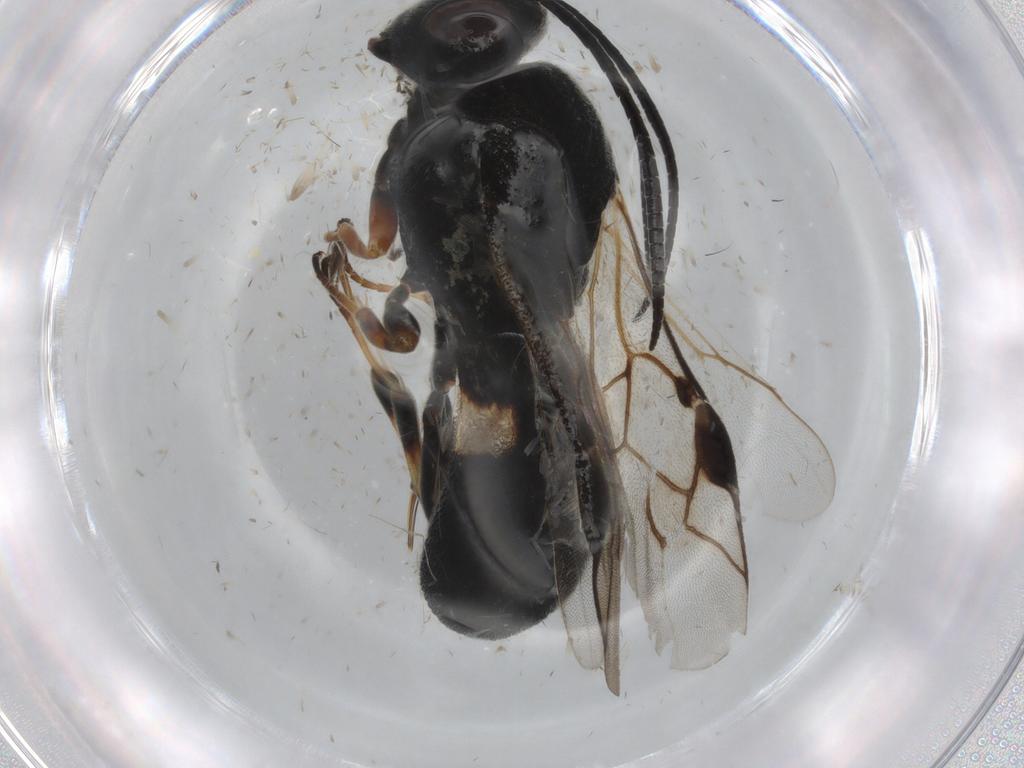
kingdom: Animalia
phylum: Arthropoda
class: Insecta
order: Hymenoptera
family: Braconidae
